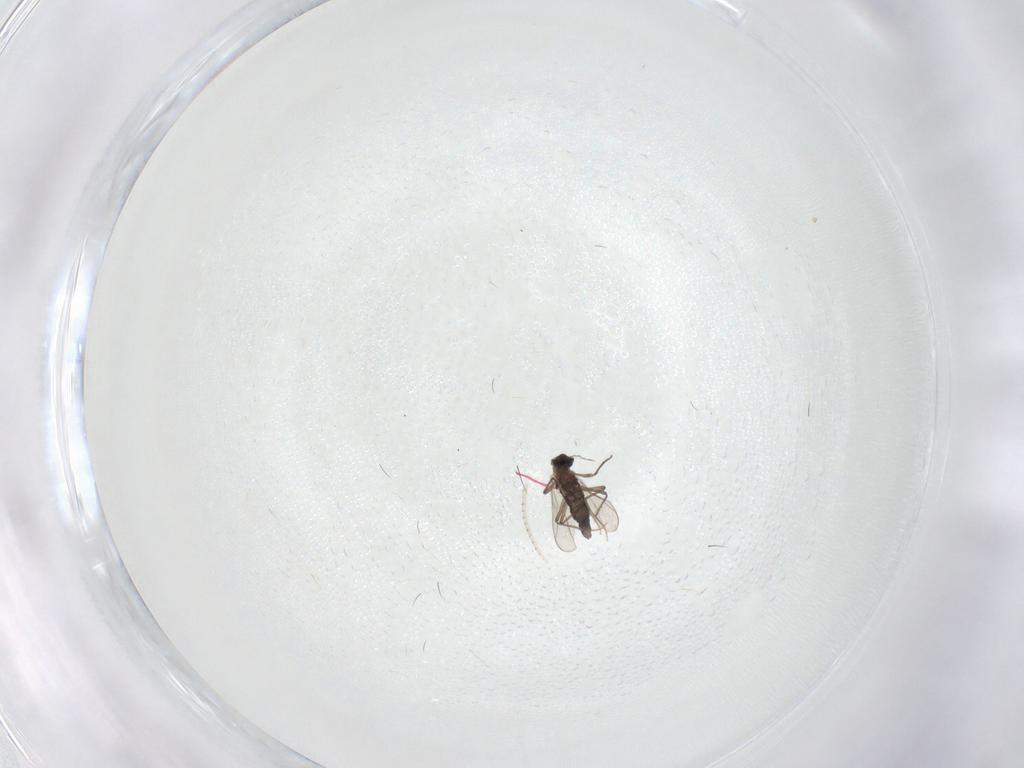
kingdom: Animalia
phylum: Arthropoda
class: Insecta
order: Diptera
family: Chironomidae
